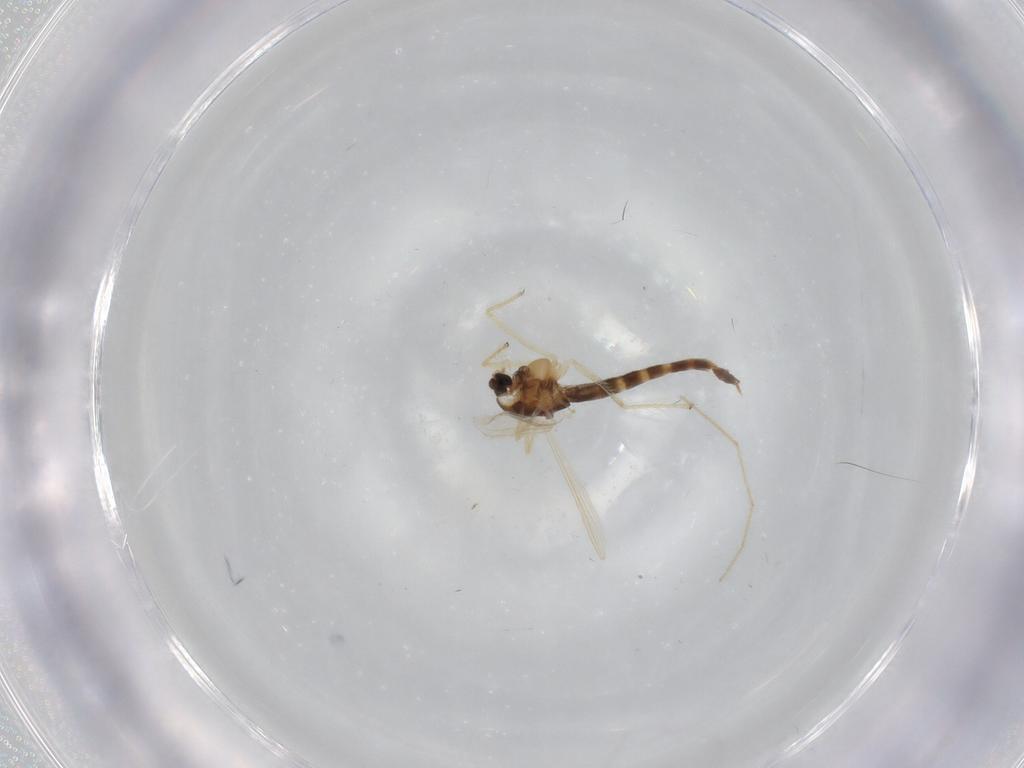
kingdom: Animalia
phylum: Arthropoda
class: Insecta
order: Diptera
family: Chironomidae
